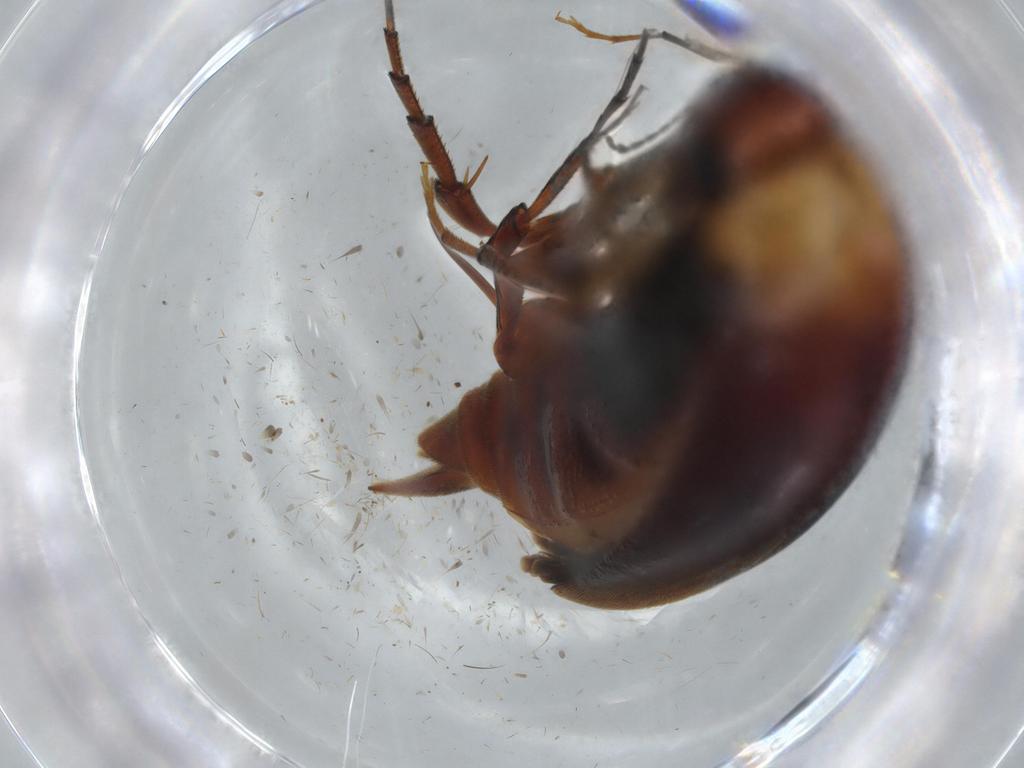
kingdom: Animalia
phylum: Arthropoda
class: Insecta
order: Coleoptera
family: Mordellidae
